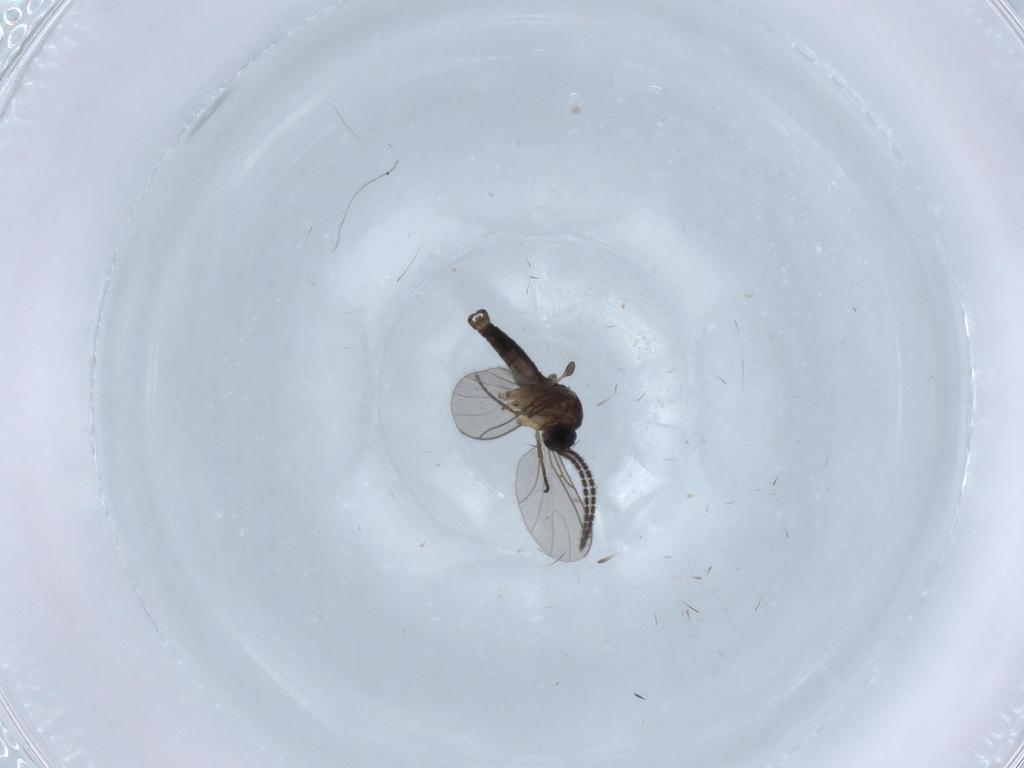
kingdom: Animalia
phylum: Arthropoda
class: Insecta
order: Diptera
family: Sciaridae
